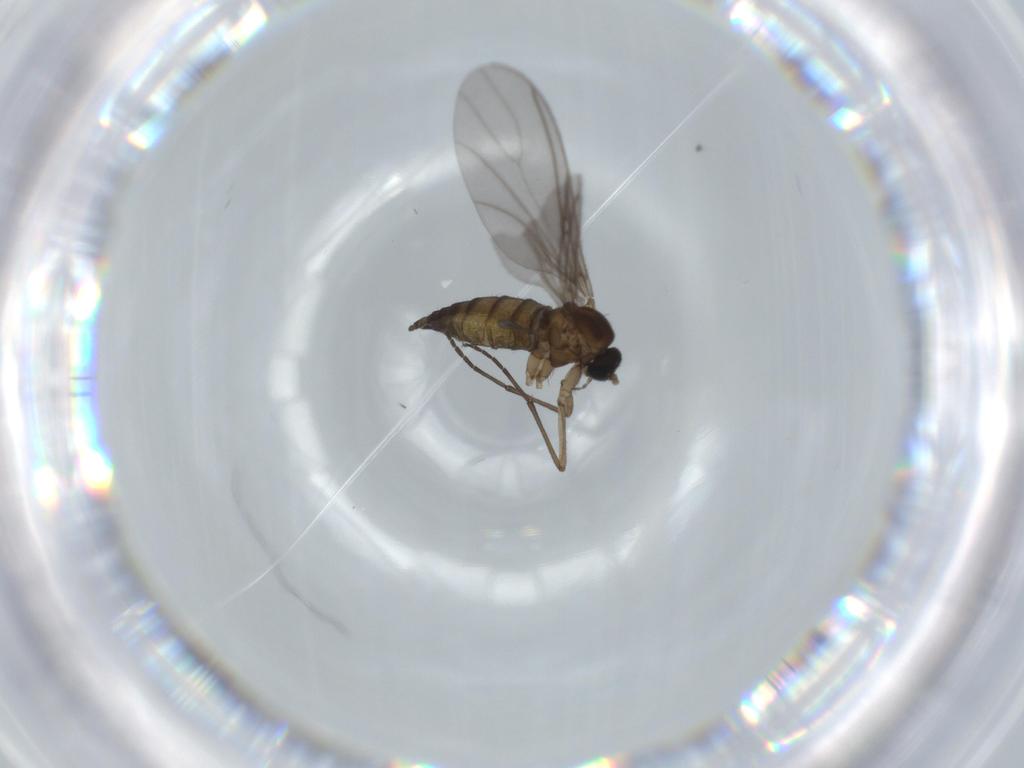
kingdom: Animalia
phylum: Arthropoda
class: Insecta
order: Diptera
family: Sciaridae
